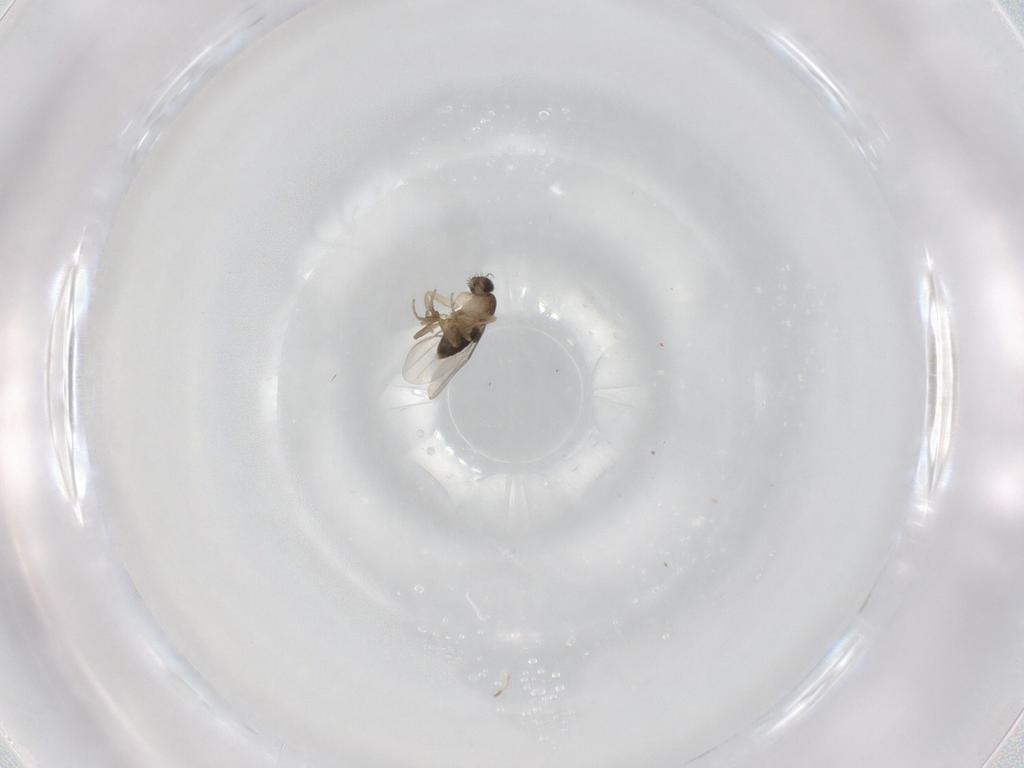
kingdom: Animalia
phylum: Arthropoda
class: Insecta
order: Diptera
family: Phoridae
